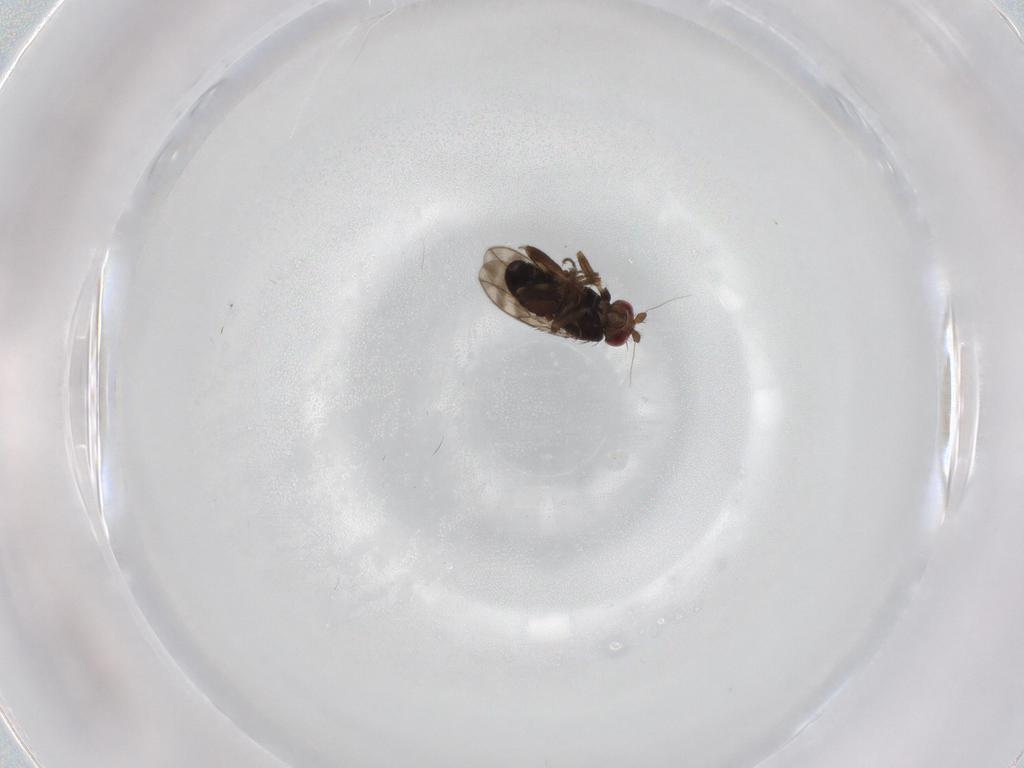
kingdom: Animalia
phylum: Arthropoda
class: Insecta
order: Diptera
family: Sphaeroceridae
